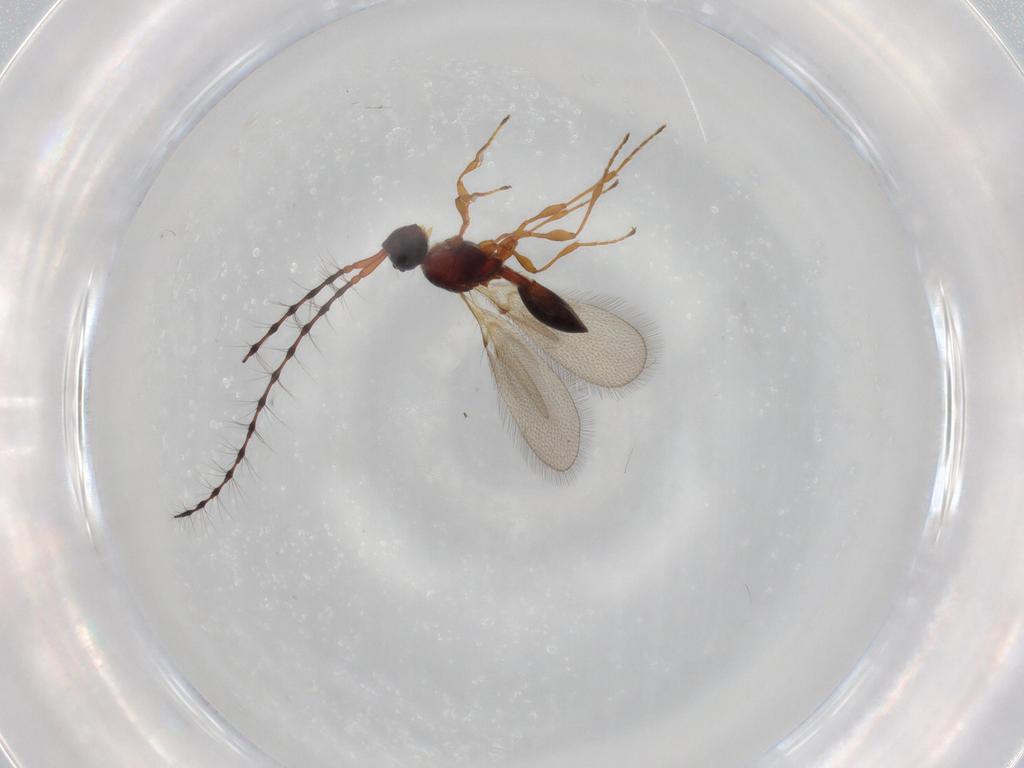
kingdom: Animalia
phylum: Arthropoda
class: Insecta
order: Hymenoptera
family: Diapriidae
